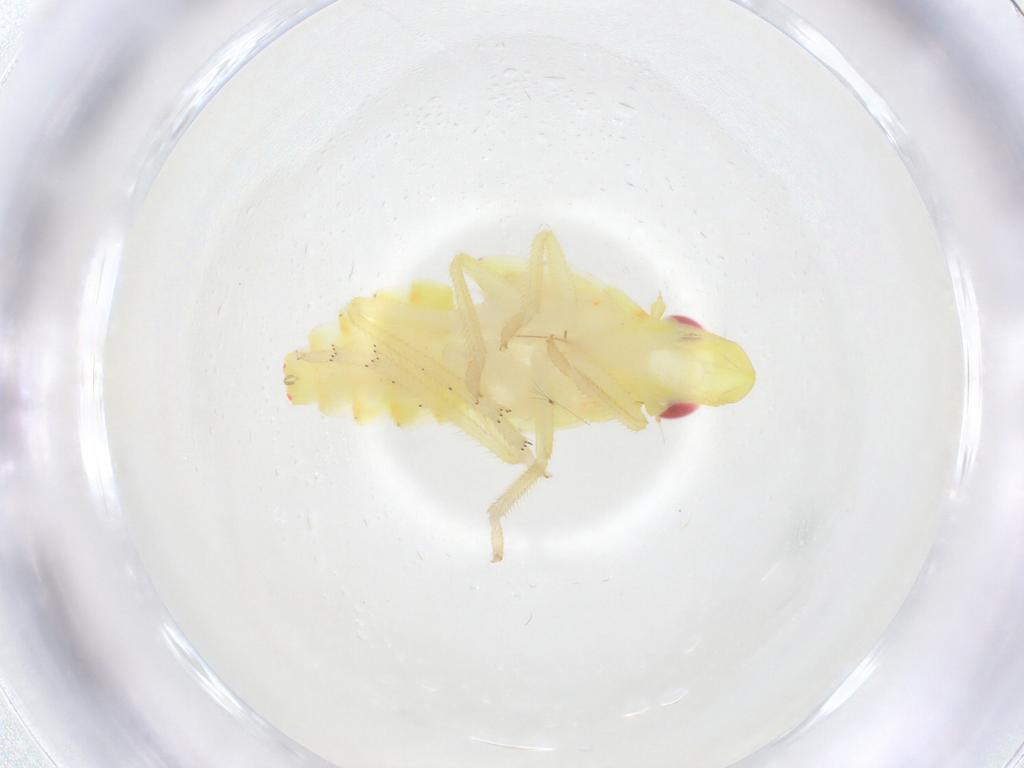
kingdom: Animalia
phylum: Arthropoda
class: Insecta
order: Hemiptera
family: Tropiduchidae
